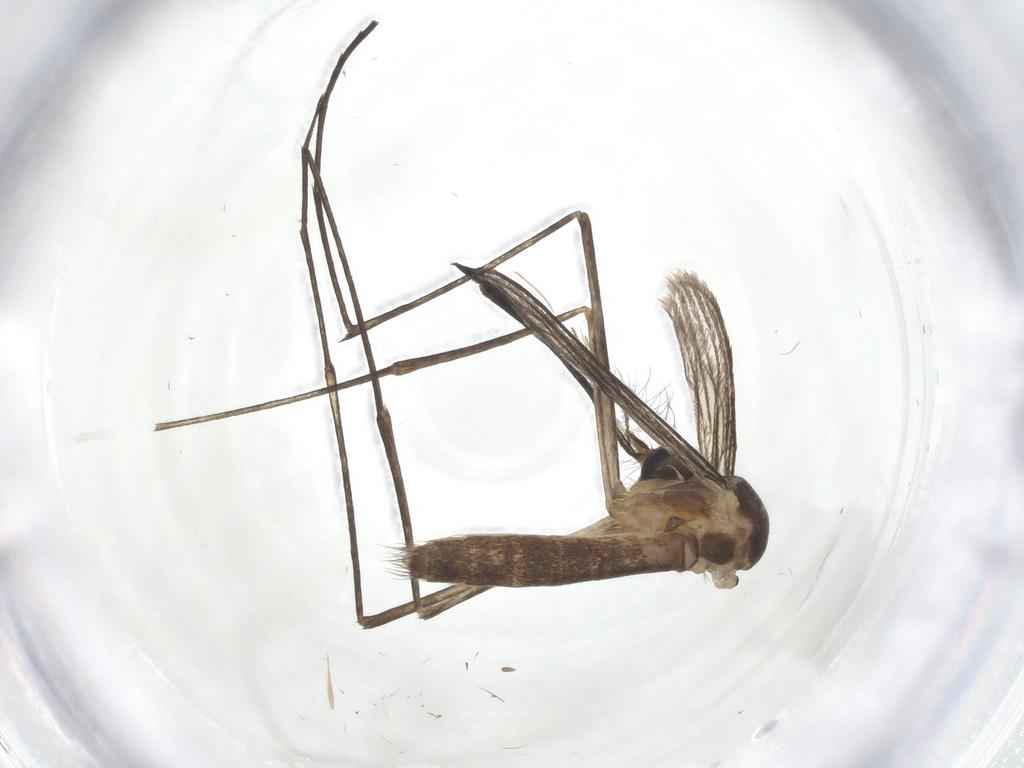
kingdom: Animalia
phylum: Arthropoda
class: Insecta
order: Diptera
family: Culicidae
